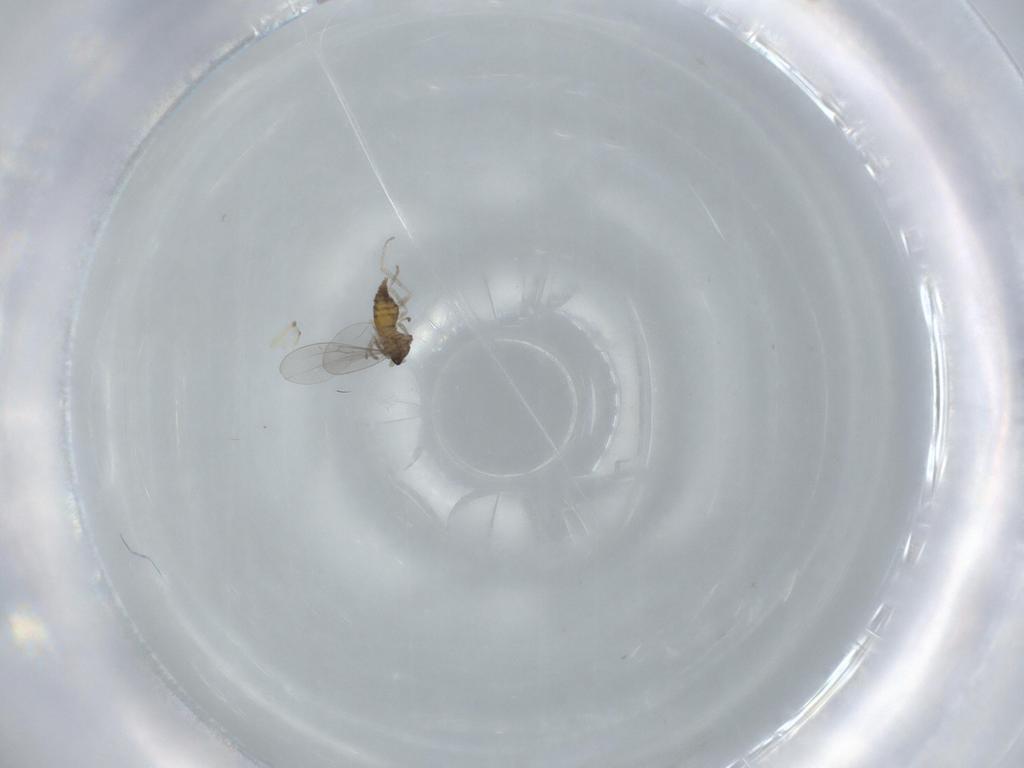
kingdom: Animalia
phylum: Arthropoda
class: Insecta
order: Diptera
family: Cecidomyiidae
